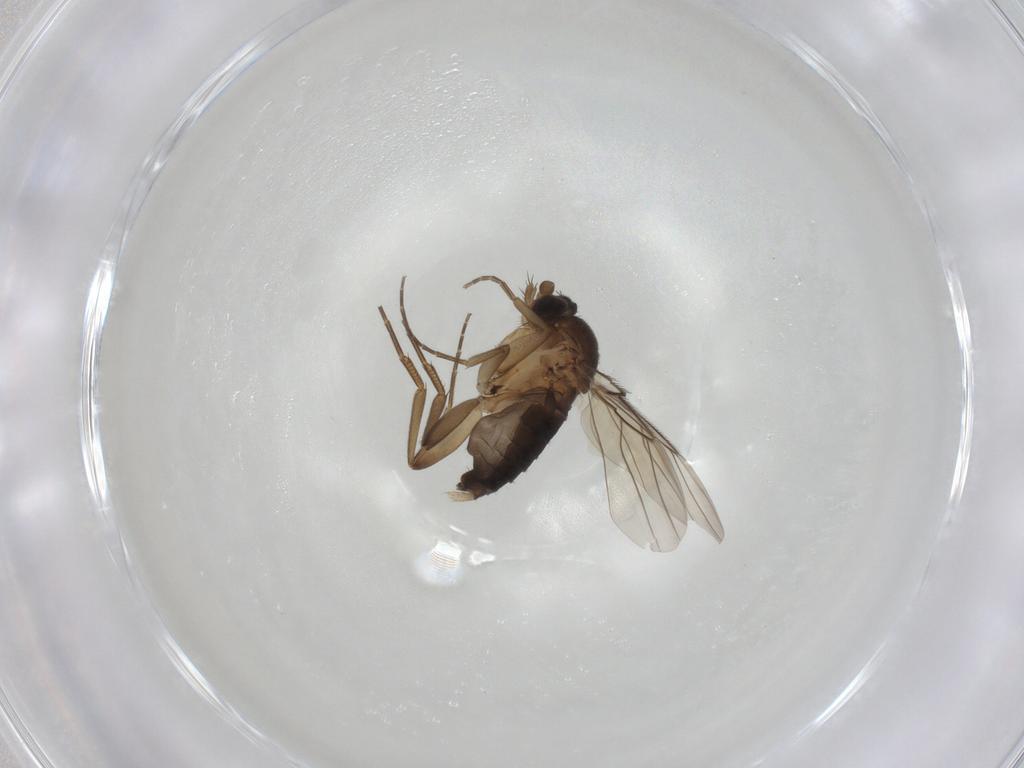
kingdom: Animalia
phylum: Arthropoda
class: Insecta
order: Diptera
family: Phoridae
